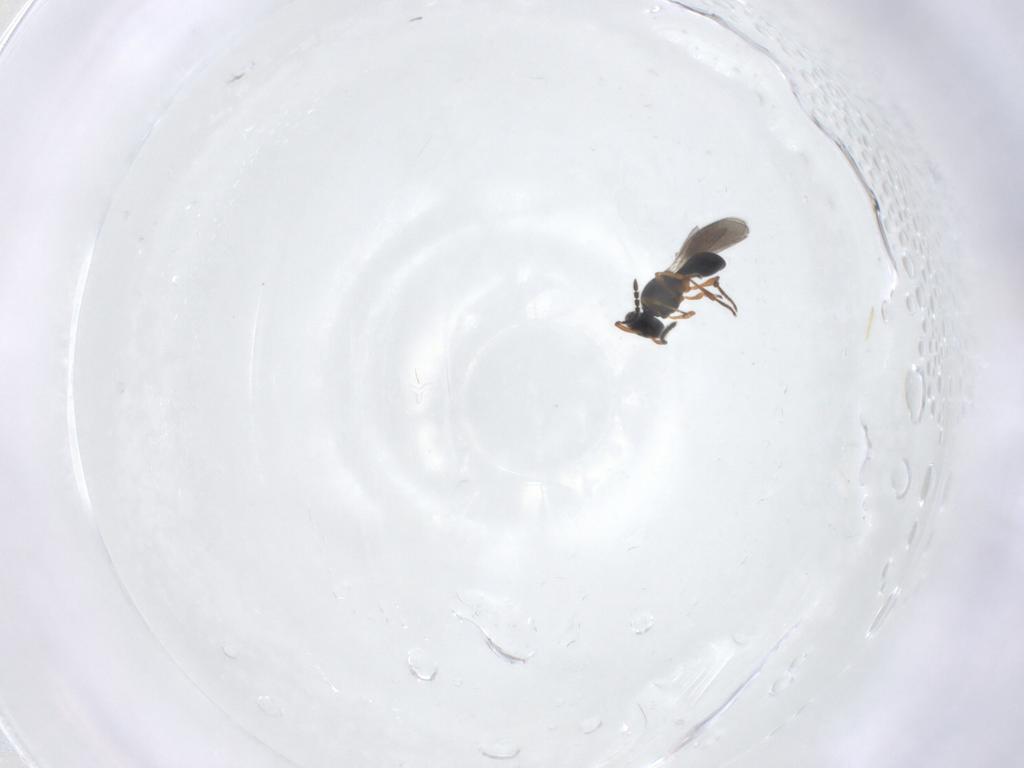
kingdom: Animalia
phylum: Arthropoda
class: Insecta
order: Hymenoptera
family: Platygastridae
